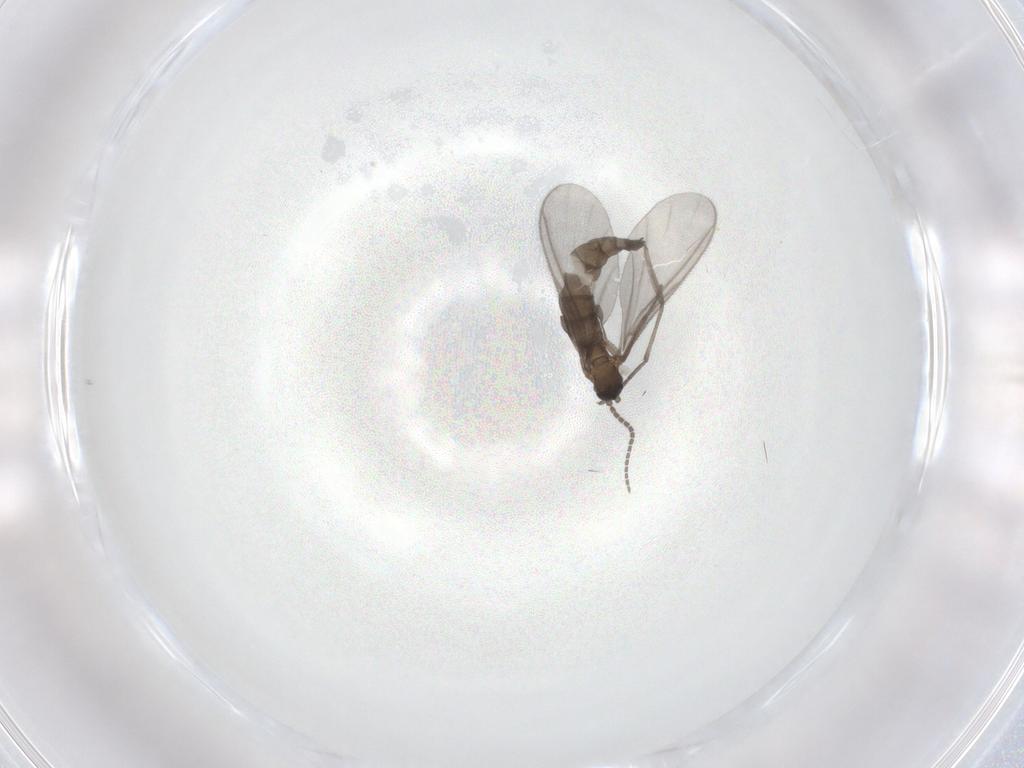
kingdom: Animalia
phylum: Arthropoda
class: Insecta
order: Diptera
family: Sciaridae
